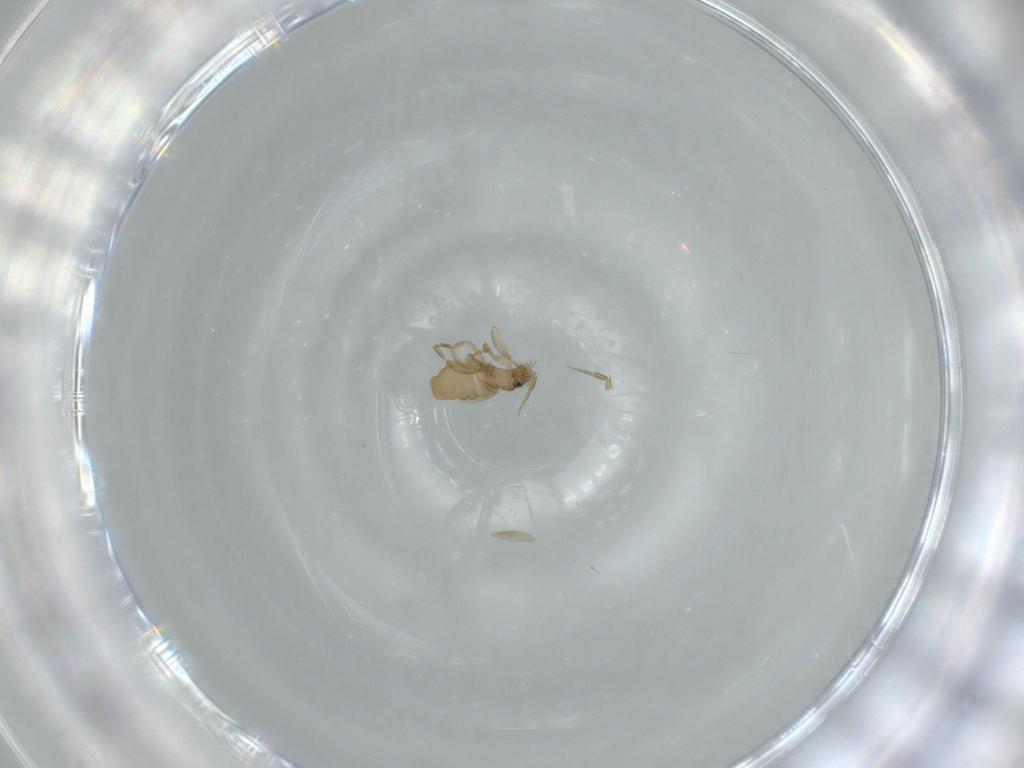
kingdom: Animalia
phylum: Arthropoda
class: Insecta
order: Diptera
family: Phoridae
